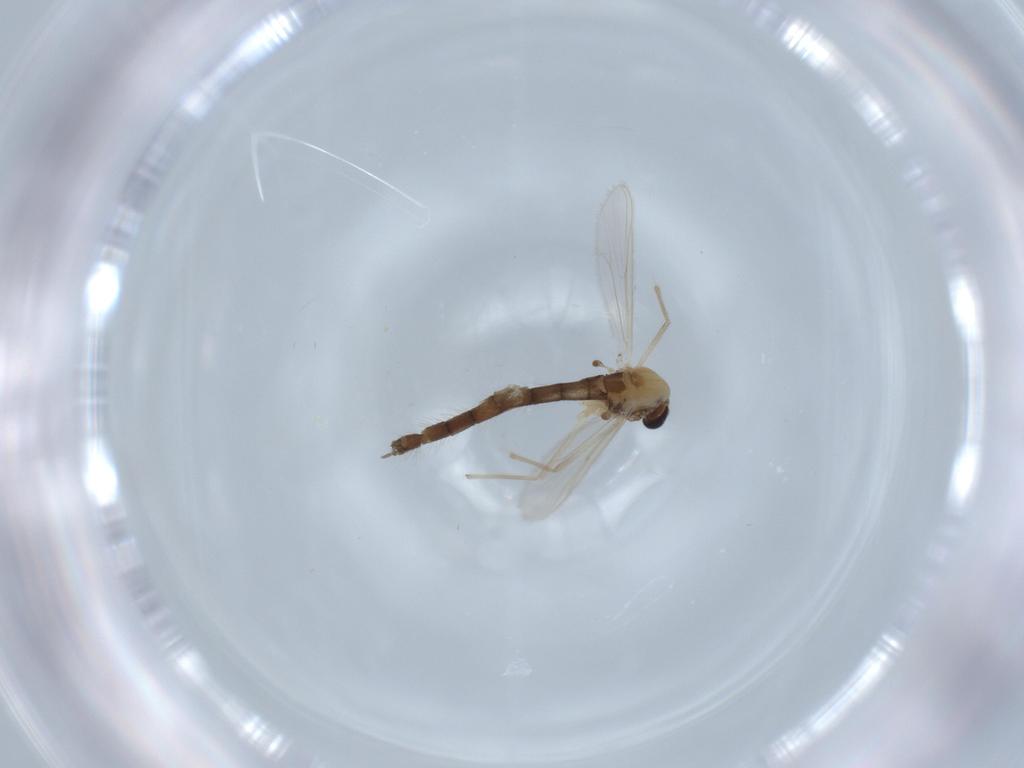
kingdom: Animalia
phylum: Arthropoda
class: Insecta
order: Diptera
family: Chironomidae
